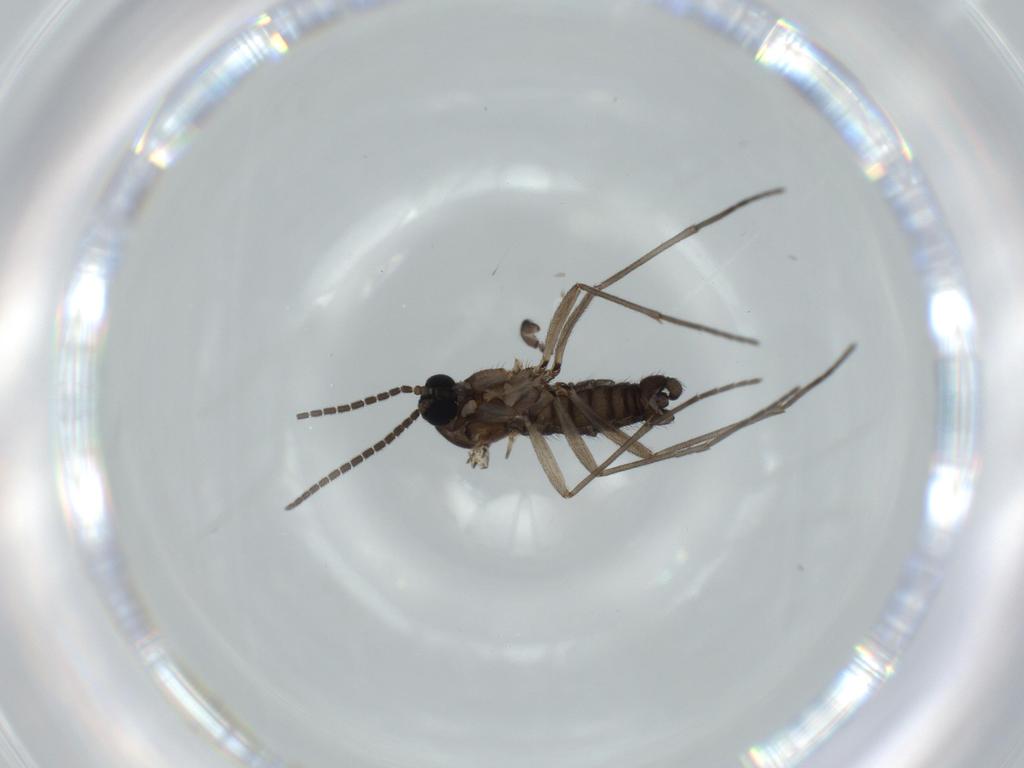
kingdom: Animalia
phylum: Arthropoda
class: Insecta
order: Diptera
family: Sciaridae
